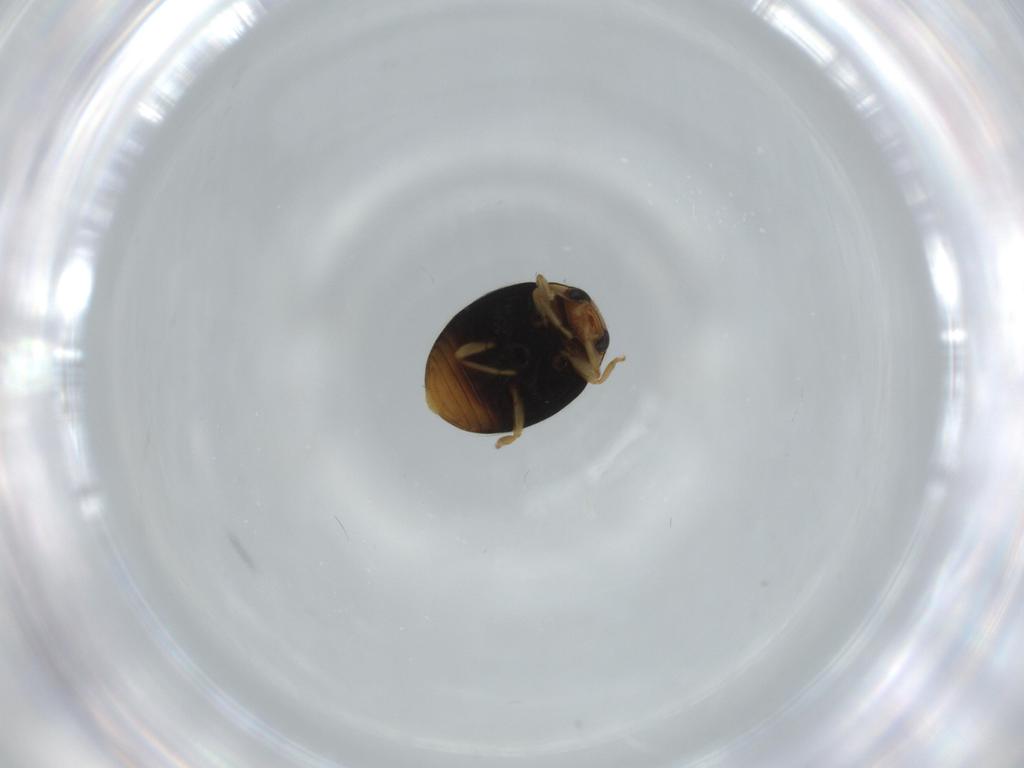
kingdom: Animalia
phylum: Arthropoda
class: Insecta
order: Coleoptera
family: Coccinellidae
